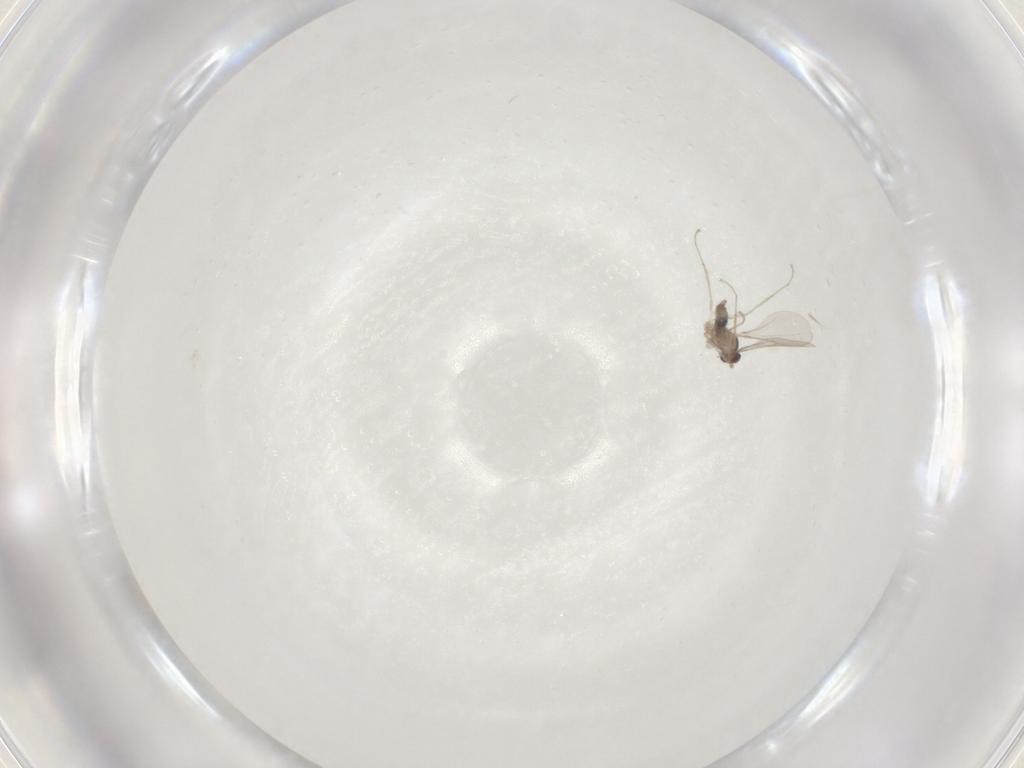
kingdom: Animalia
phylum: Arthropoda
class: Insecta
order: Diptera
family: Cecidomyiidae
